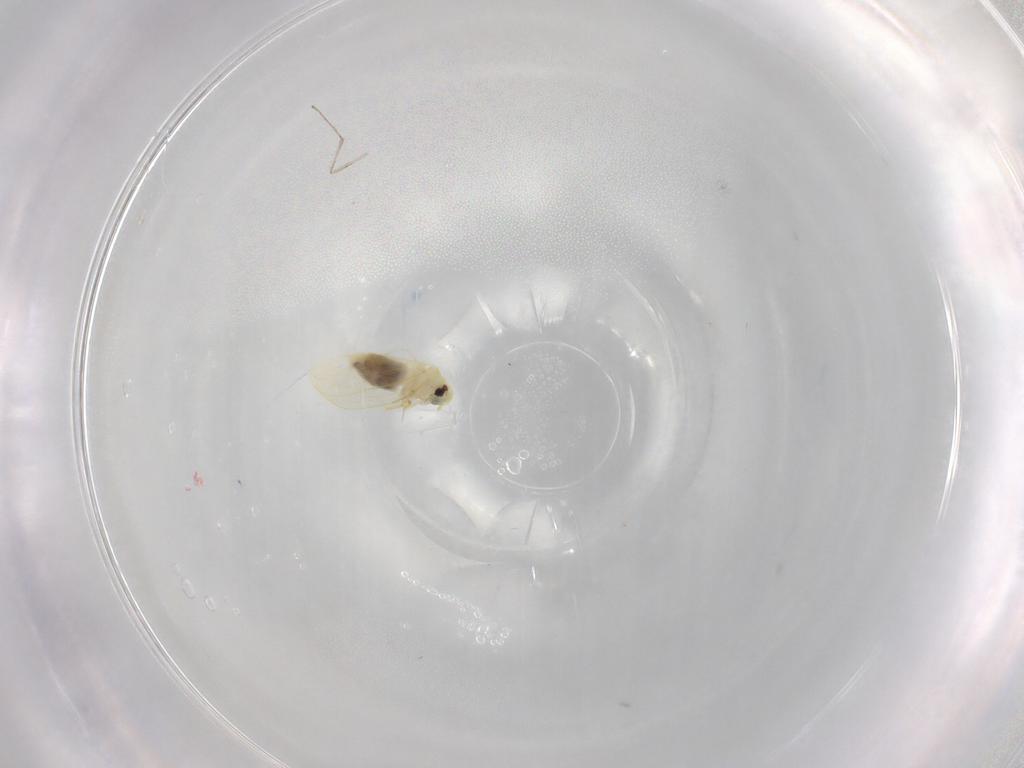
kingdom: Animalia
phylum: Arthropoda
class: Insecta
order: Hemiptera
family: Aleyrodidae
